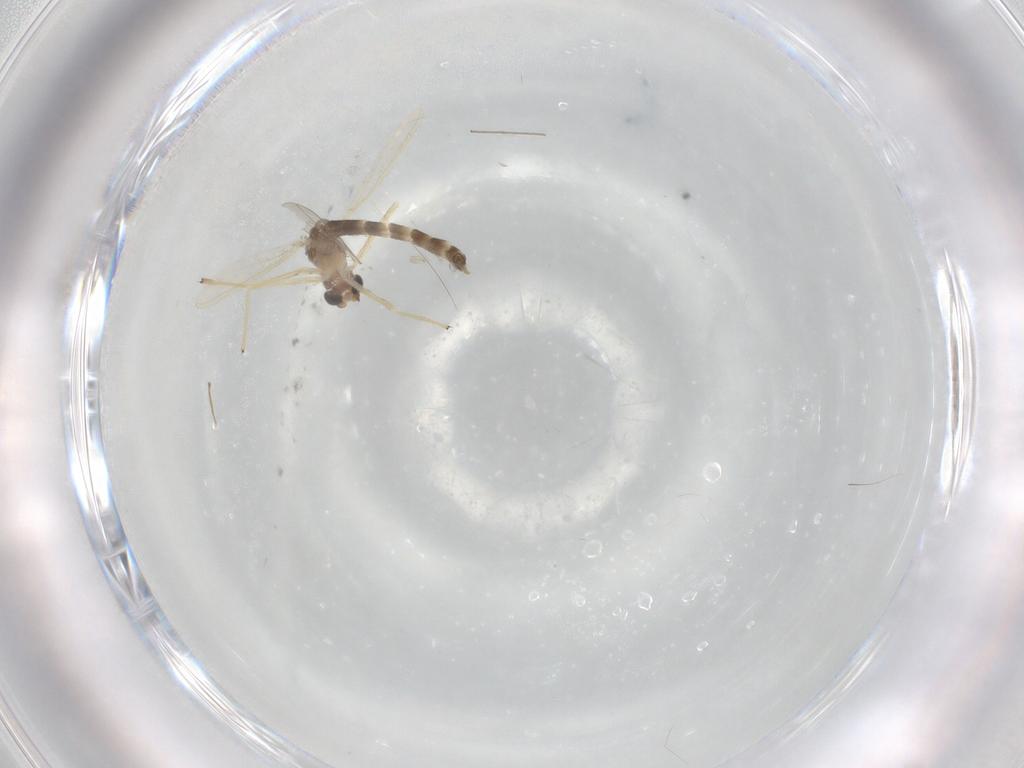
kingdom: Animalia
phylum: Arthropoda
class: Insecta
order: Diptera
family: Chironomidae
